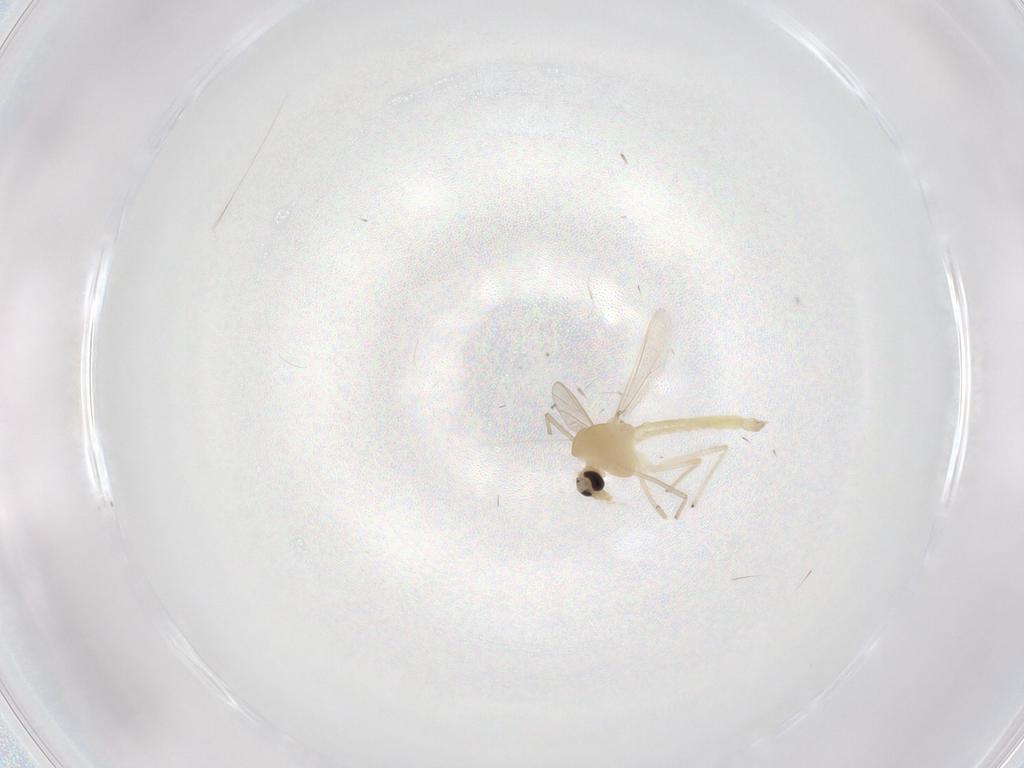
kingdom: Animalia
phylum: Arthropoda
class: Insecta
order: Diptera
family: Chironomidae
